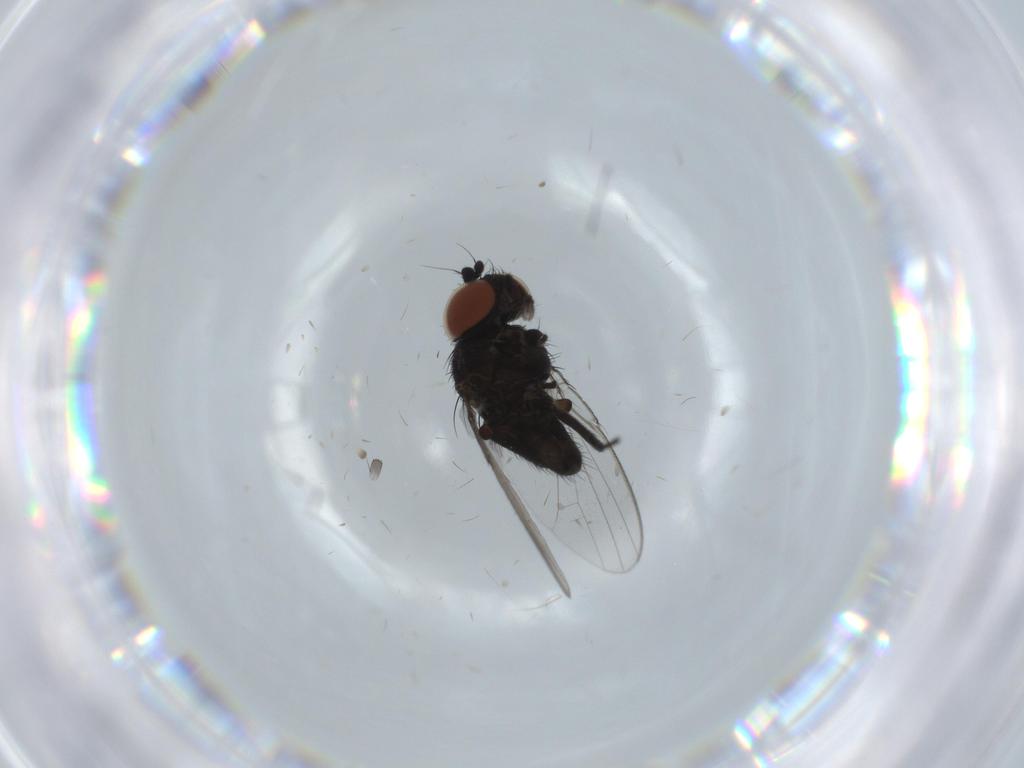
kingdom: Animalia
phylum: Arthropoda
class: Insecta
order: Diptera
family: Milichiidae
